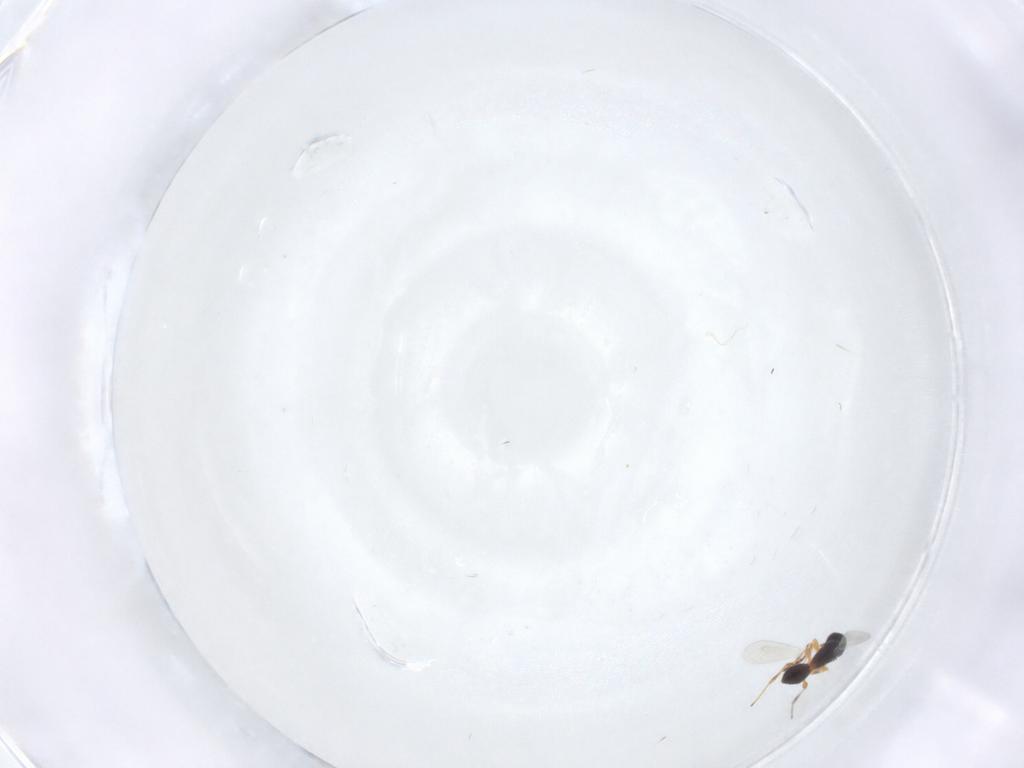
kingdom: Animalia
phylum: Arthropoda
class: Insecta
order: Hymenoptera
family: Platygastridae
